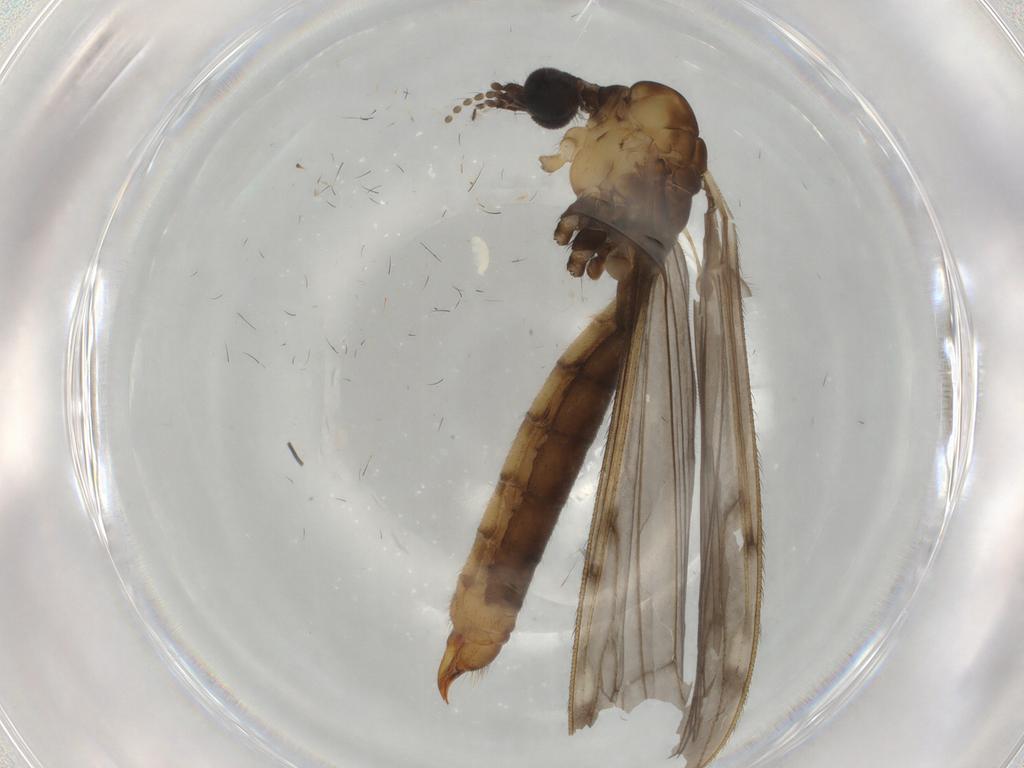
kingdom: Animalia
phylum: Arthropoda
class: Insecta
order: Diptera
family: Limoniidae
